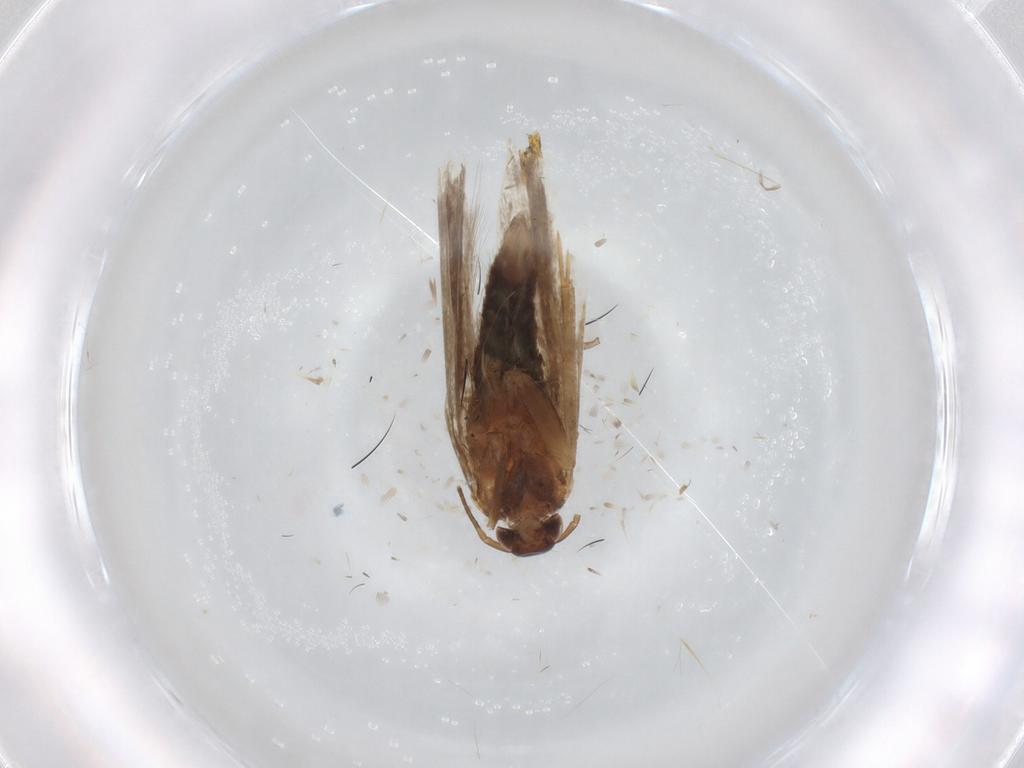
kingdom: Animalia
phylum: Arthropoda
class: Insecta
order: Lepidoptera
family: Gelechiidae
